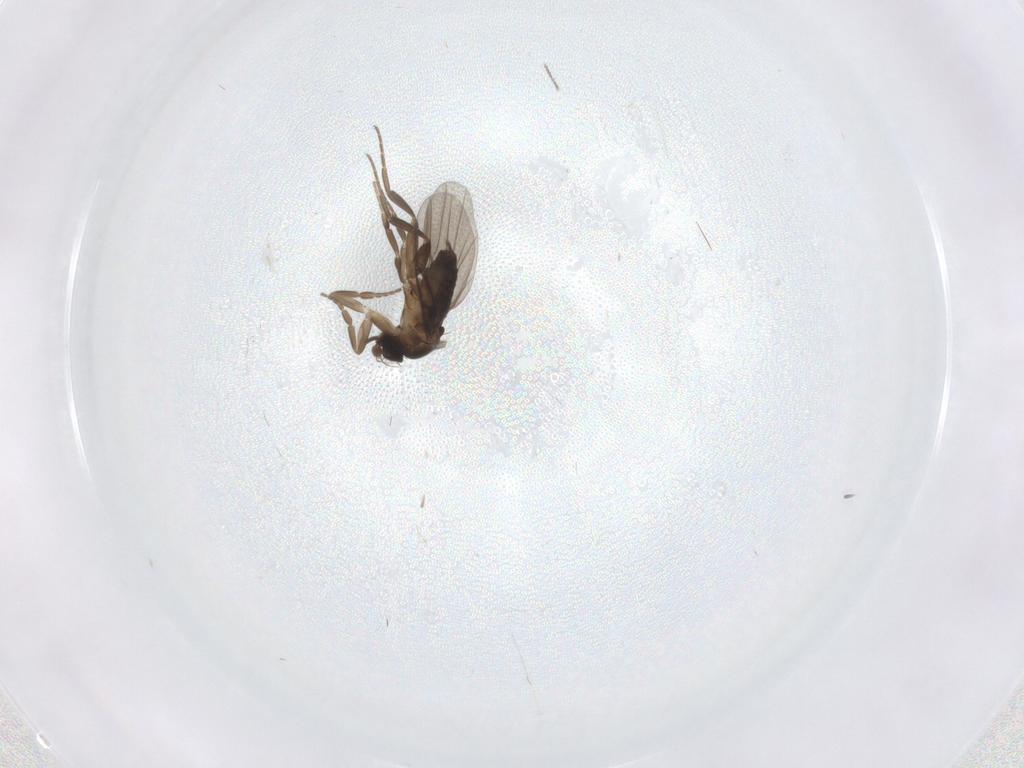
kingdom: Animalia
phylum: Arthropoda
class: Insecta
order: Diptera
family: Phoridae
